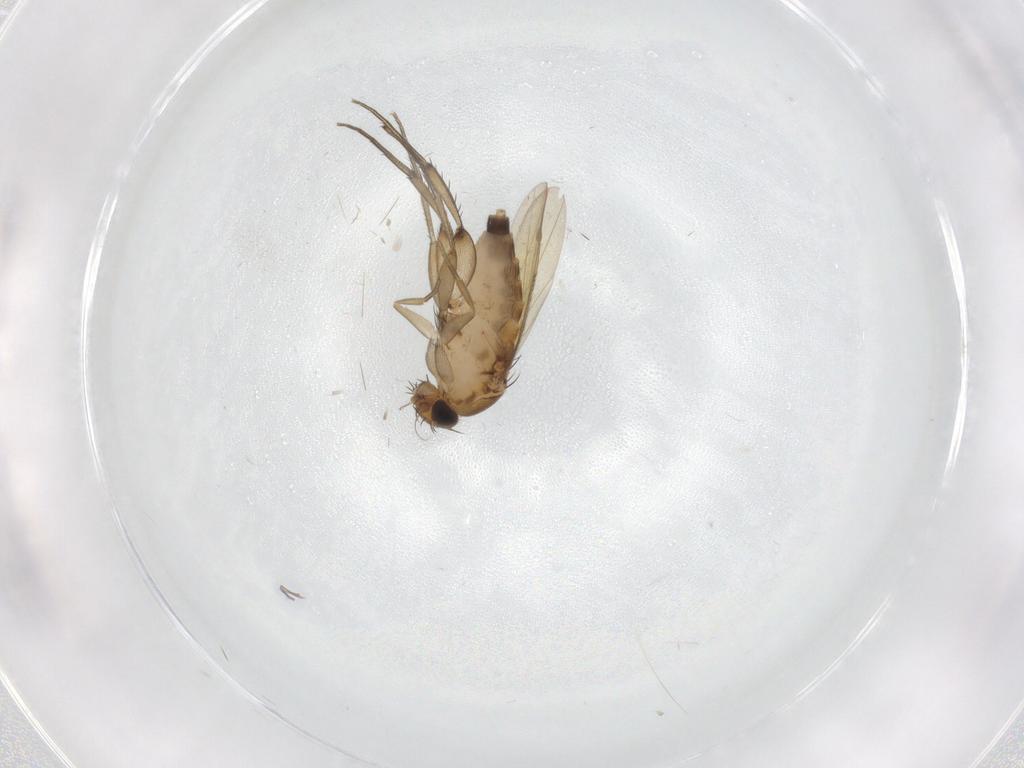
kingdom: Animalia
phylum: Arthropoda
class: Insecta
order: Diptera
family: Phoridae
